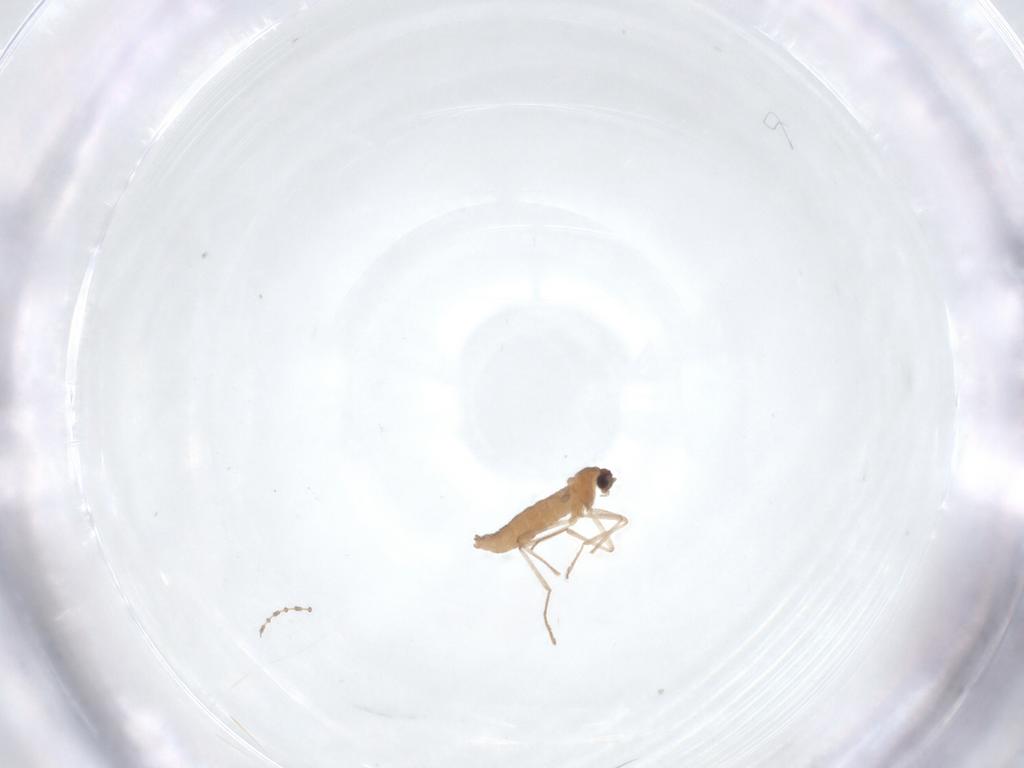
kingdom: Animalia
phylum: Arthropoda
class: Insecta
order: Diptera
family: Cecidomyiidae
